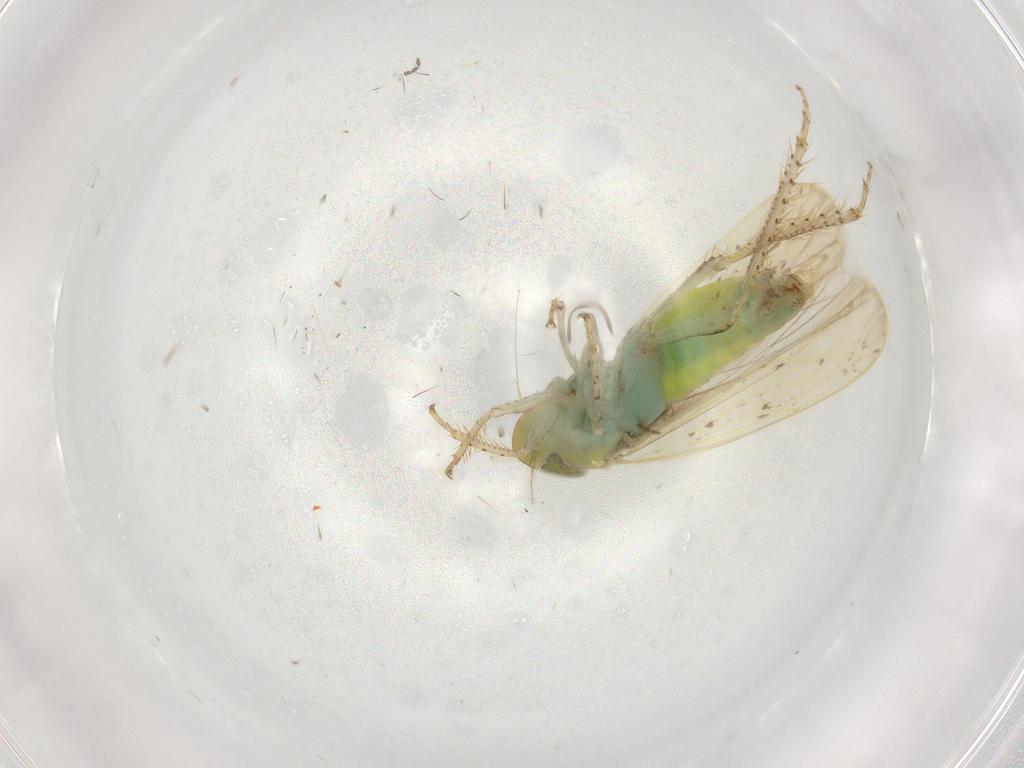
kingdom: Animalia
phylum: Arthropoda
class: Insecta
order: Hemiptera
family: Cicadellidae
